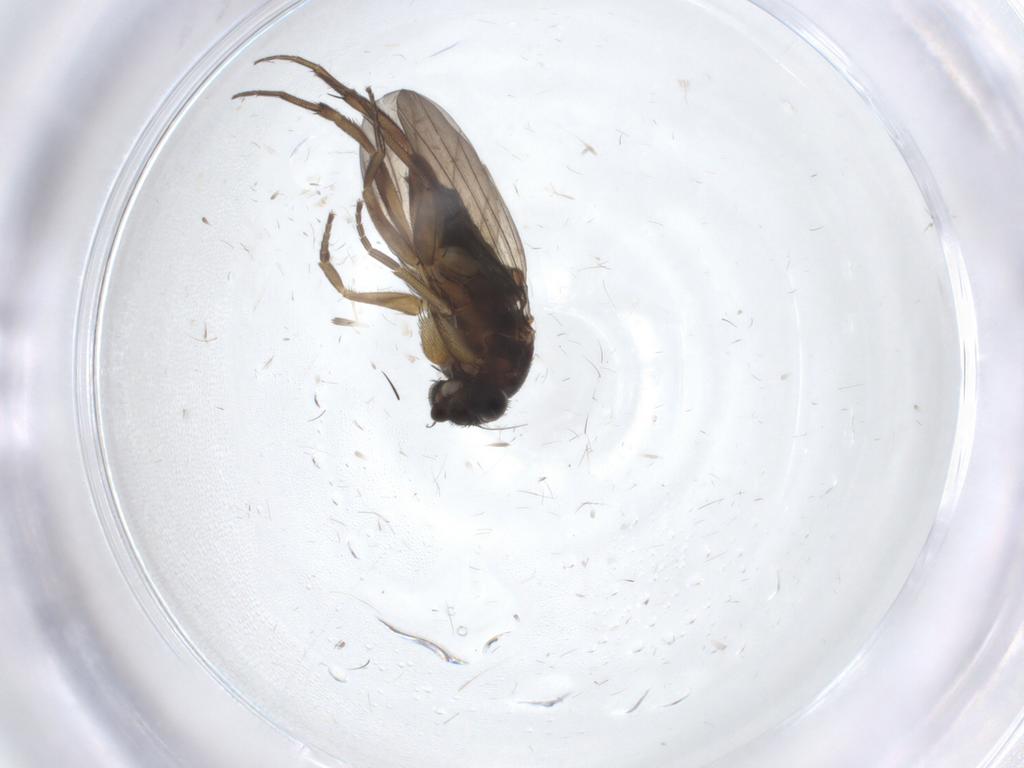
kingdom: Animalia
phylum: Arthropoda
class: Insecta
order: Diptera
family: Phoridae
